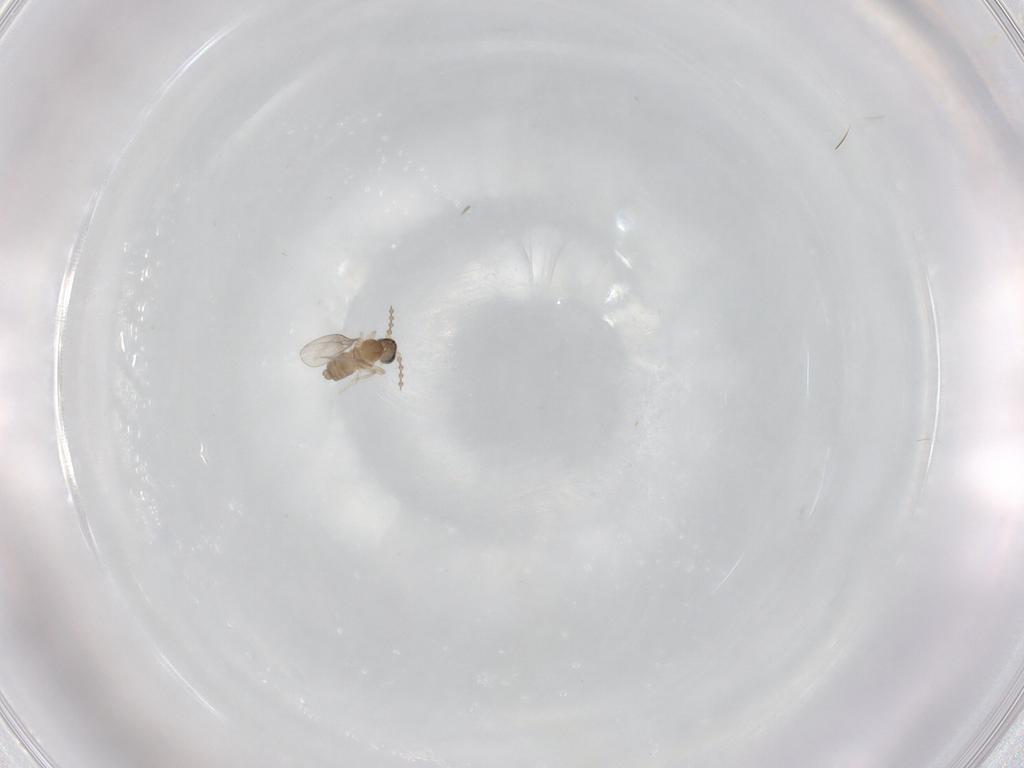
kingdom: Animalia
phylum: Arthropoda
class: Insecta
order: Diptera
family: Cecidomyiidae
